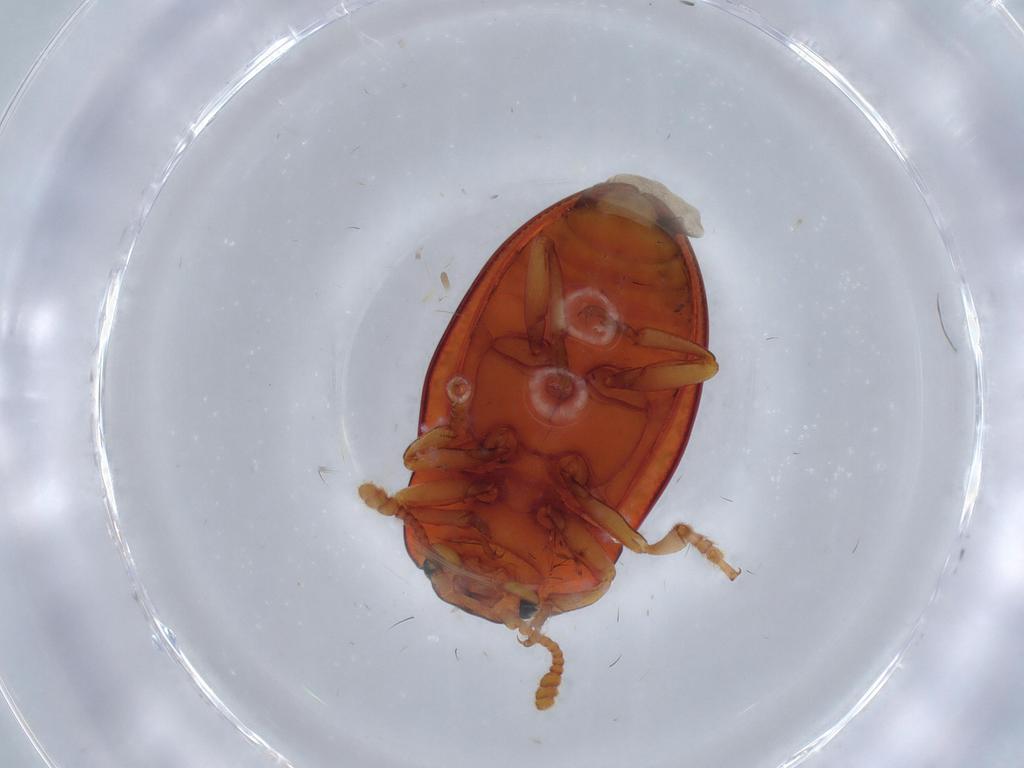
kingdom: Animalia
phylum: Arthropoda
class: Insecta
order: Coleoptera
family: Erotylidae
